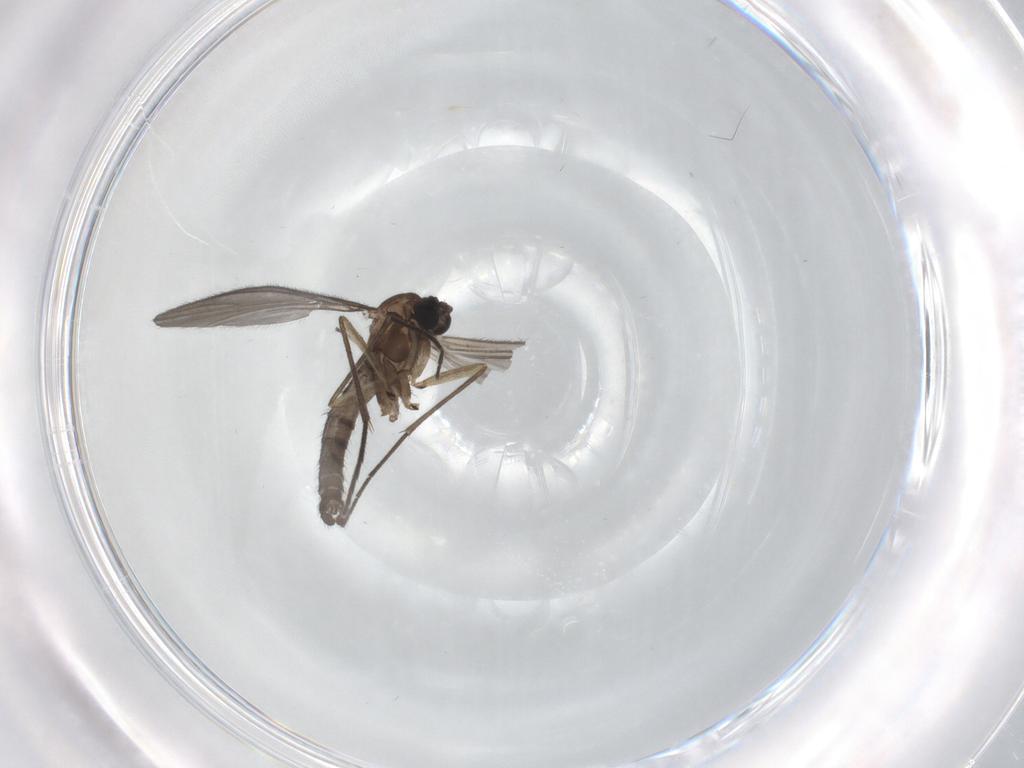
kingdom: Animalia
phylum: Arthropoda
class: Insecta
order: Diptera
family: Sciaridae
